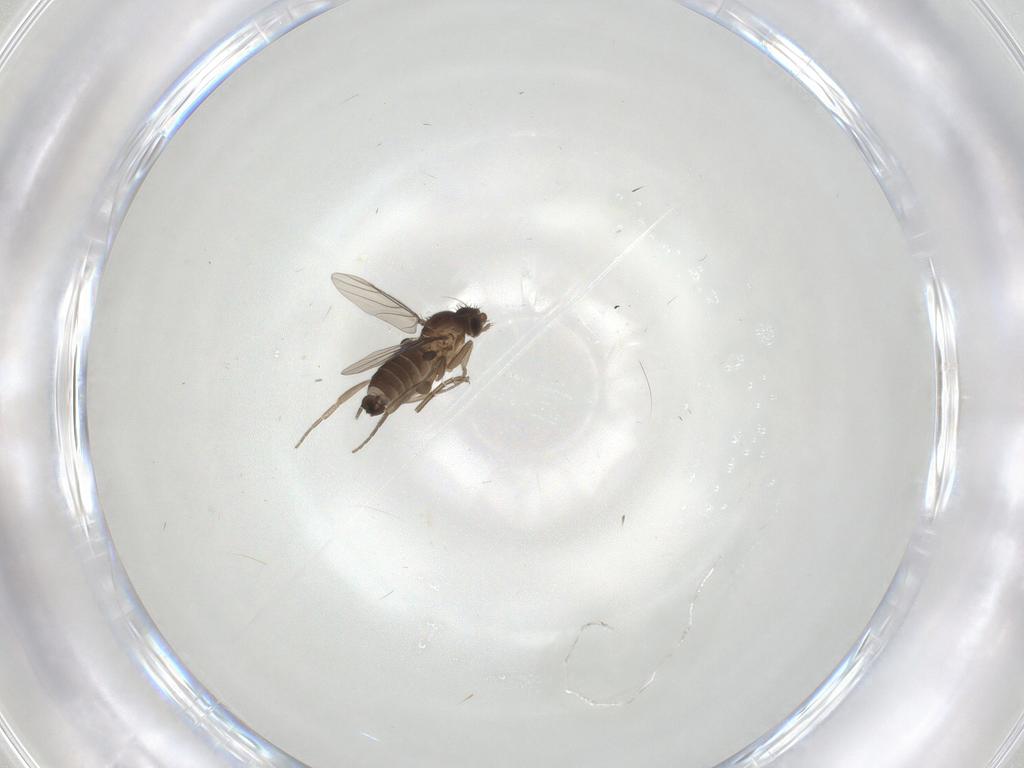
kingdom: Animalia
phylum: Arthropoda
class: Insecta
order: Diptera
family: Phoridae
